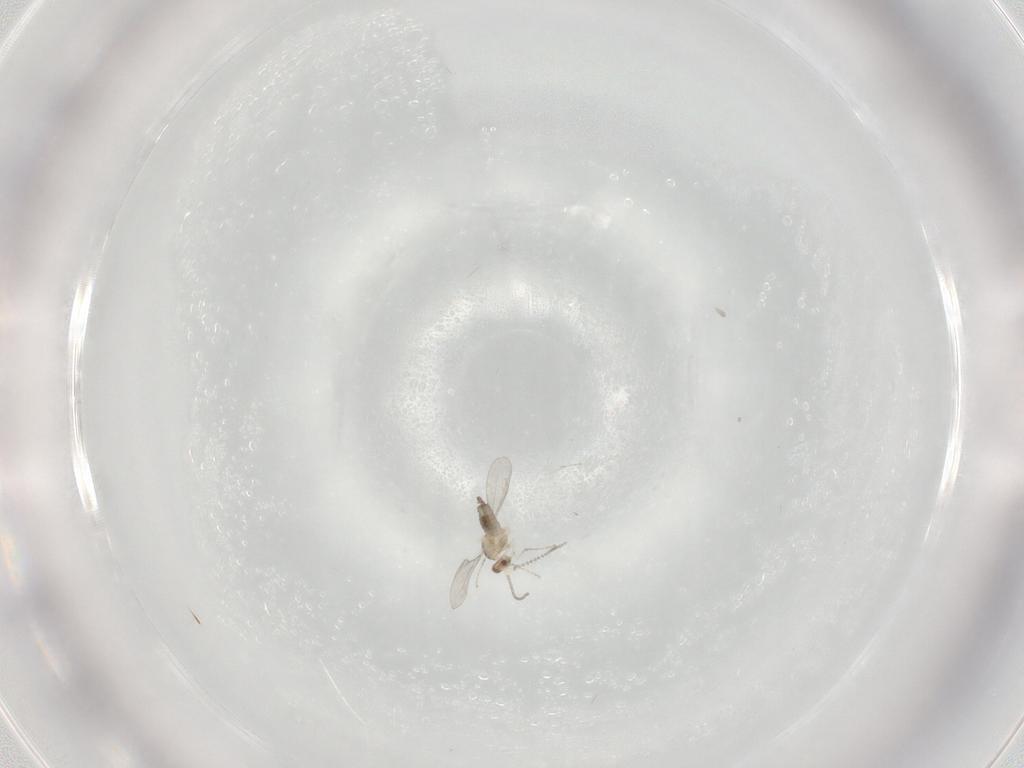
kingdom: Animalia
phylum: Arthropoda
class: Insecta
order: Diptera
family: Cecidomyiidae
